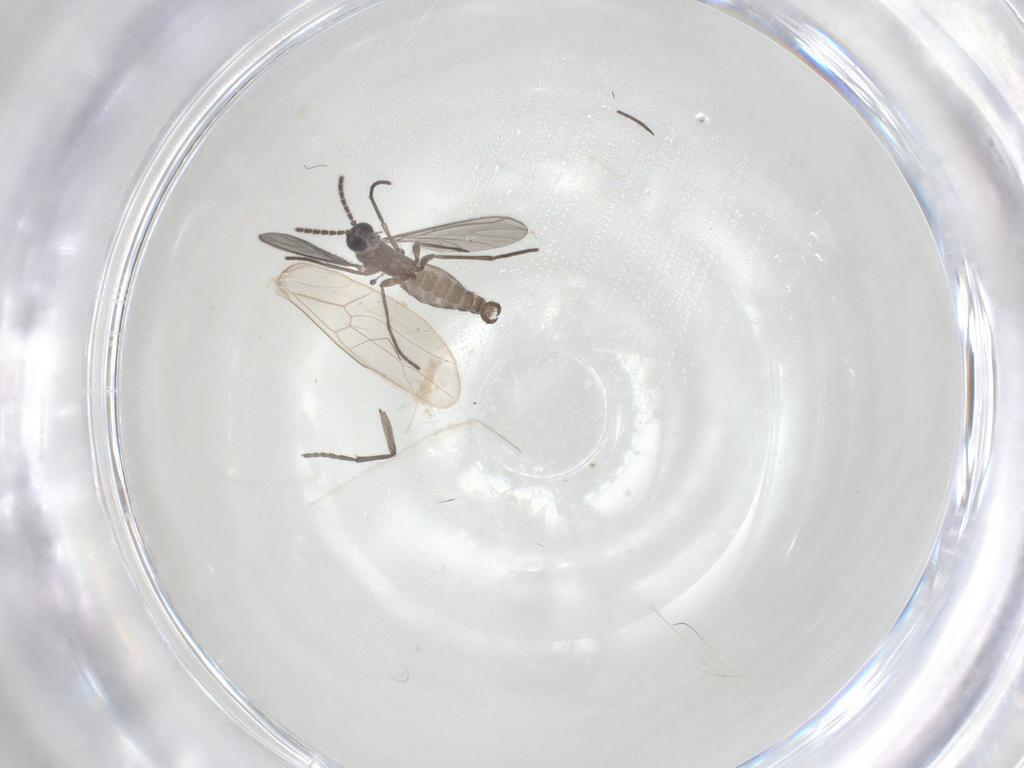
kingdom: Animalia
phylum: Arthropoda
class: Insecta
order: Diptera
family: Sciaridae
